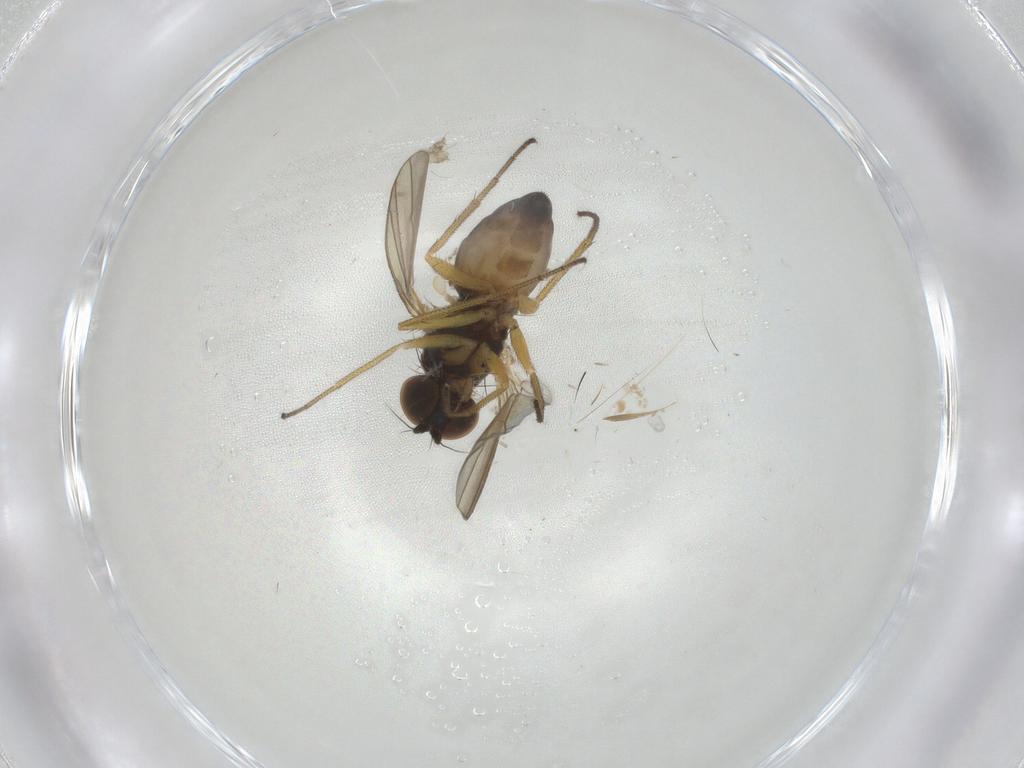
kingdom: Animalia
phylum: Arthropoda
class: Insecta
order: Diptera
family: Dolichopodidae
